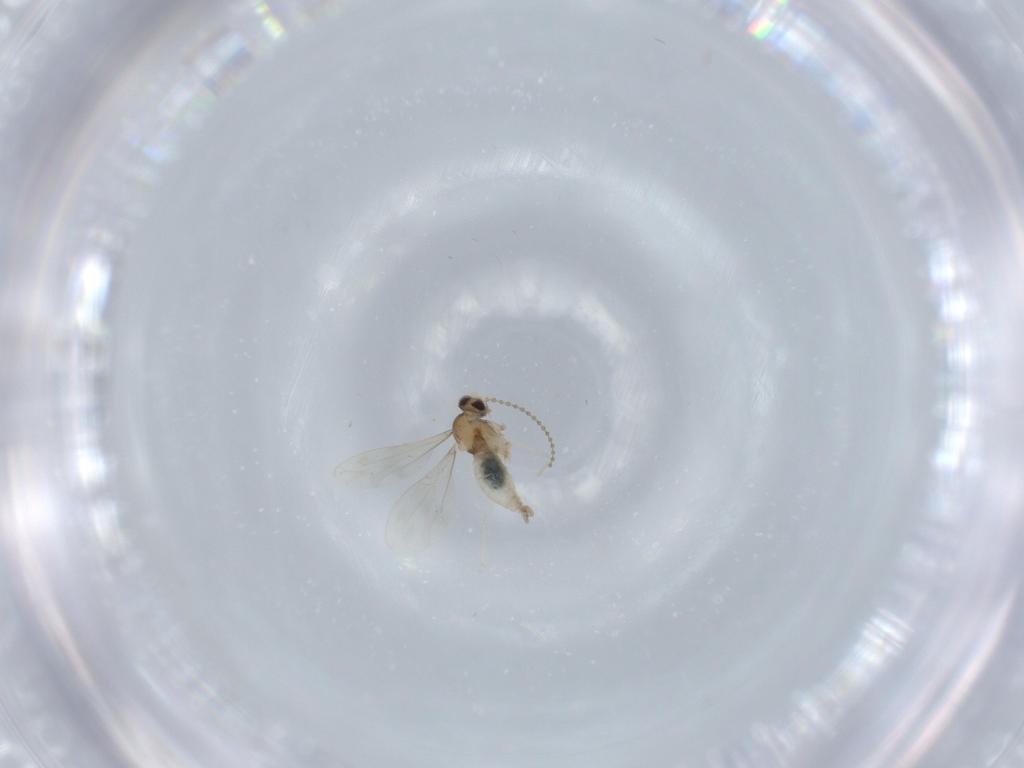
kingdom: Animalia
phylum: Arthropoda
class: Insecta
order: Diptera
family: Cecidomyiidae
